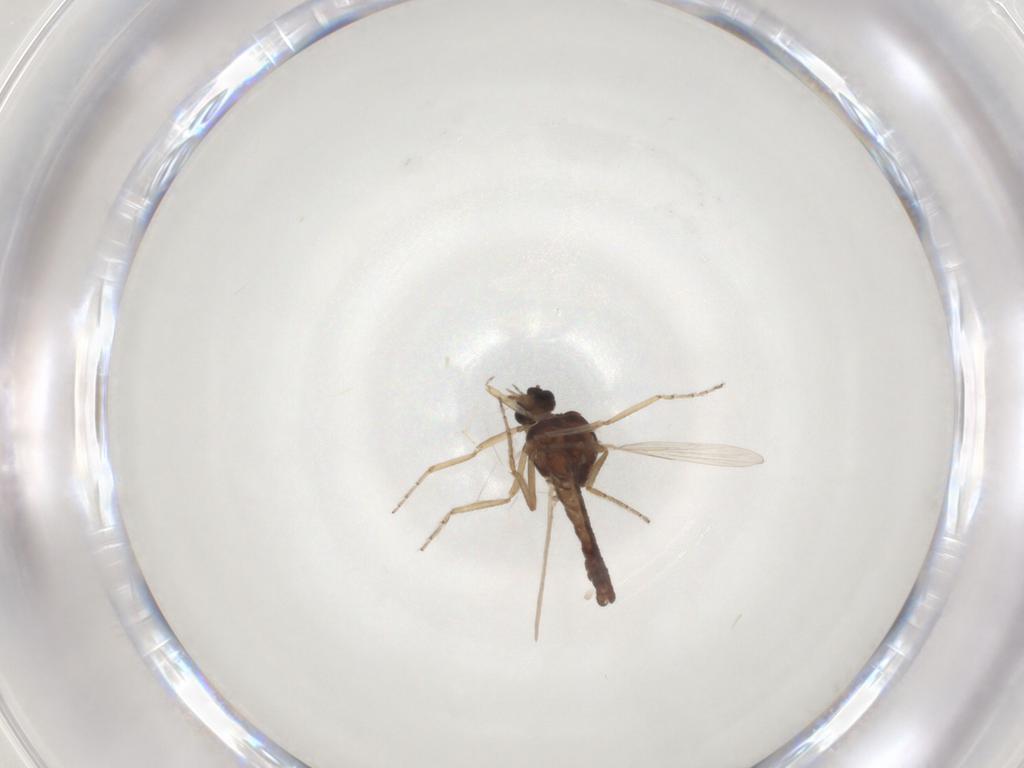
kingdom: Animalia
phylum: Arthropoda
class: Insecta
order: Diptera
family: Ceratopogonidae
